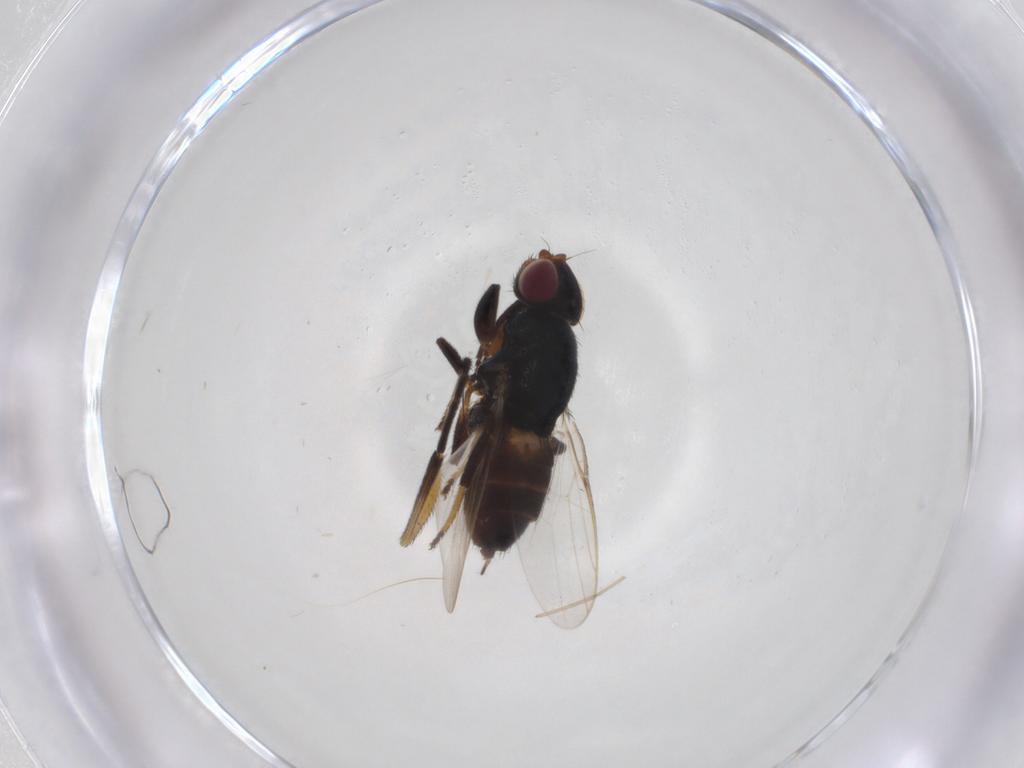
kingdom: Animalia
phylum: Arthropoda
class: Insecta
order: Diptera
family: Chloropidae
